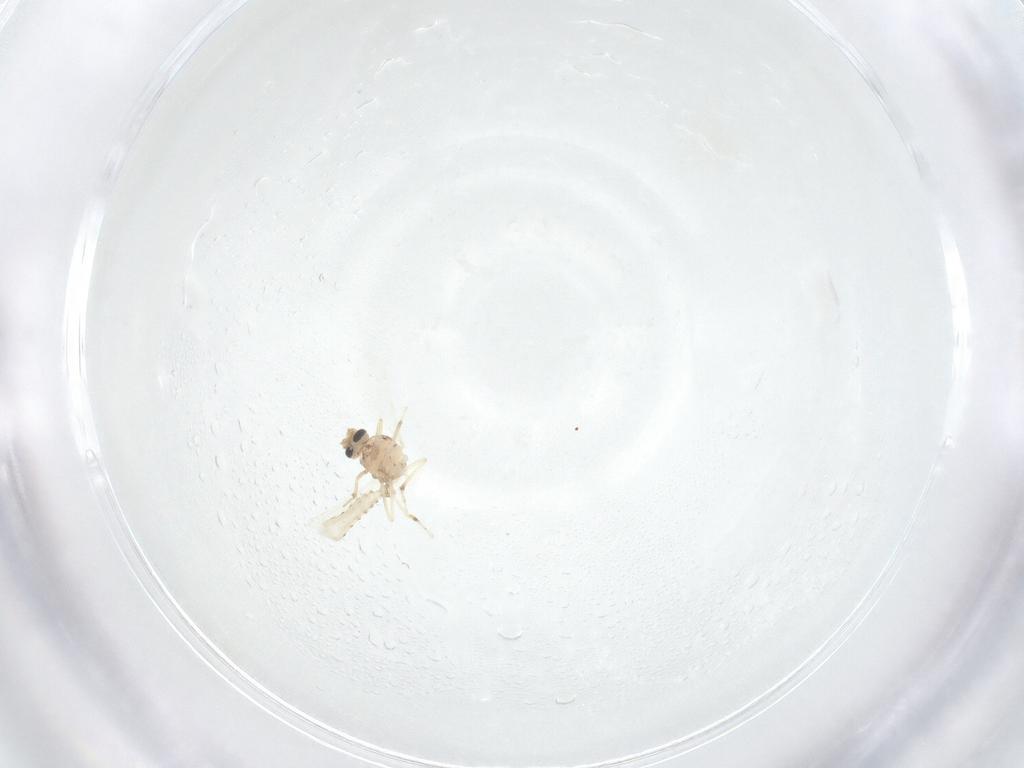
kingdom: Animalia
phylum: Arthropoda
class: Insecta
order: Diptera
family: Ceratopogonidae
